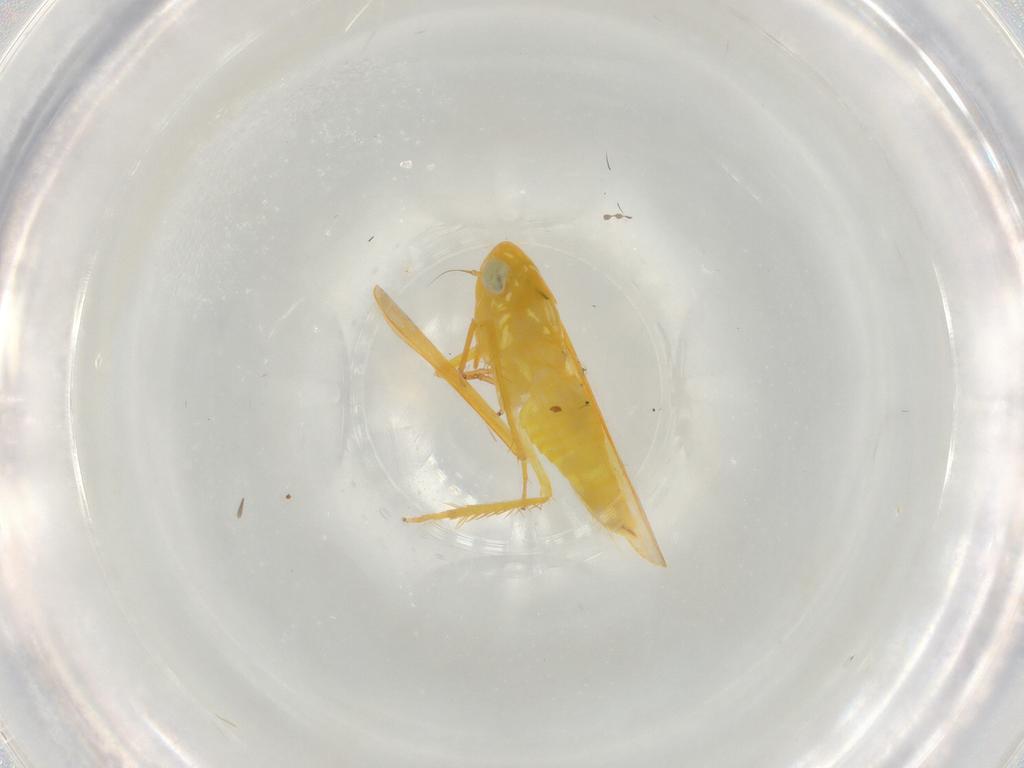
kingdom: Animalia
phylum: Arthropoda
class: Insecta
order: Hemiptera
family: Cicadellidae
